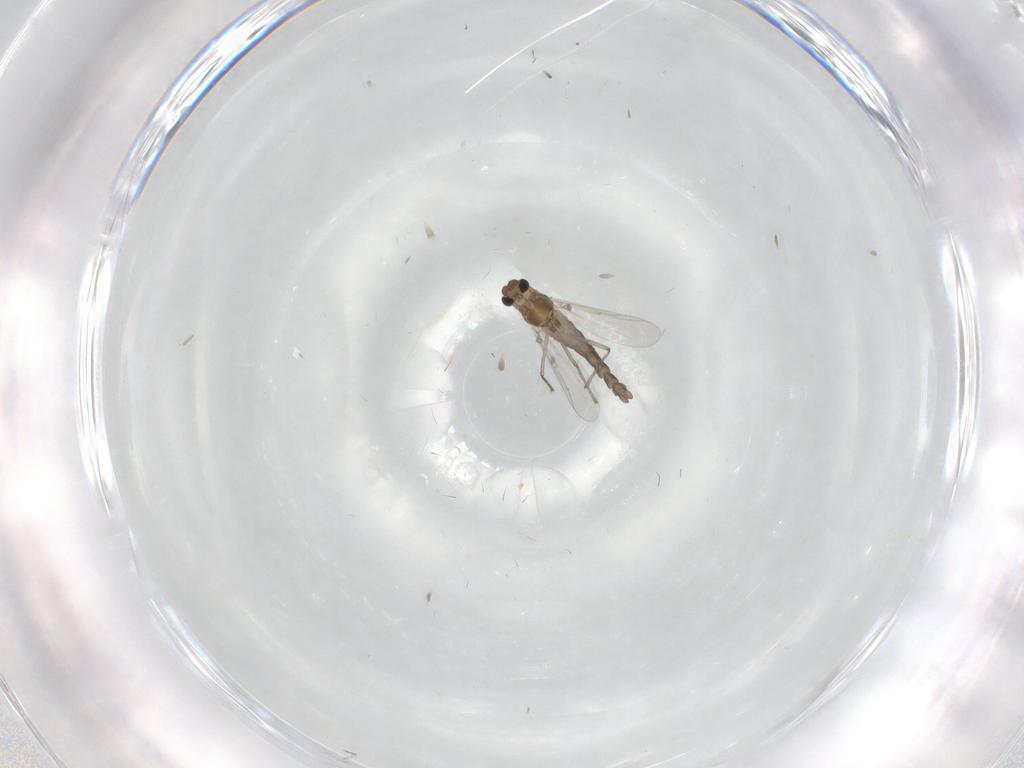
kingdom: Animalia
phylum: Arthropoda
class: Insecta
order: Diptera
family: Chironomidae
